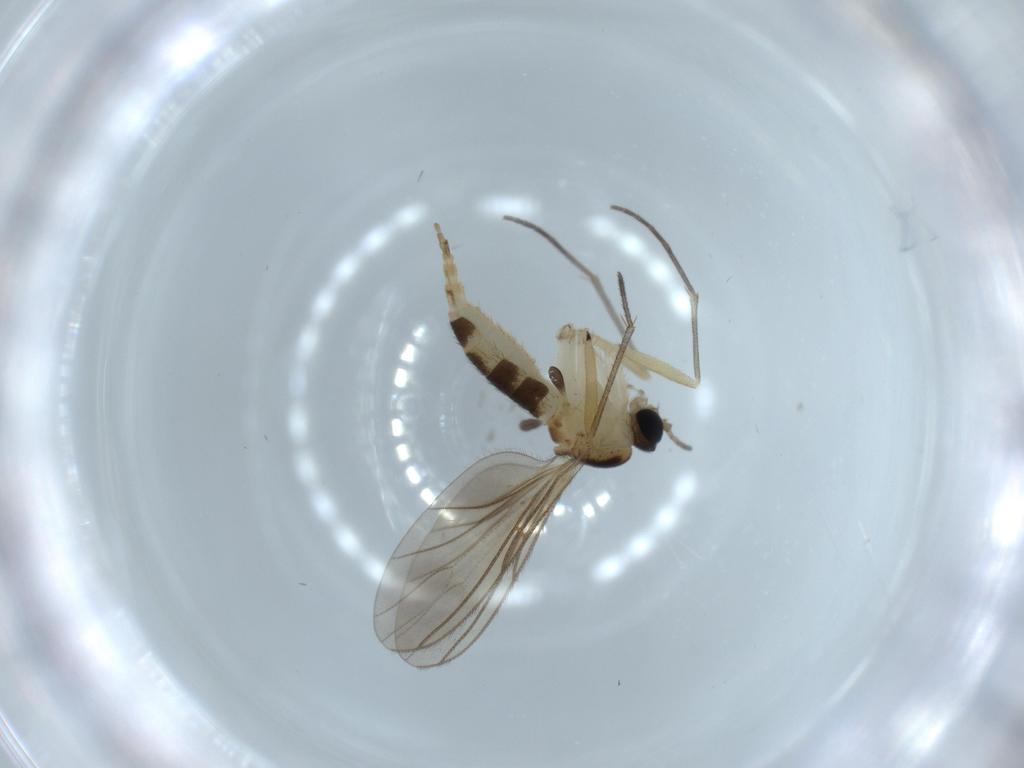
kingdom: Animalia
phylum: Arthropoda
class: Insecta
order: Diptera
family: Sciaridae
